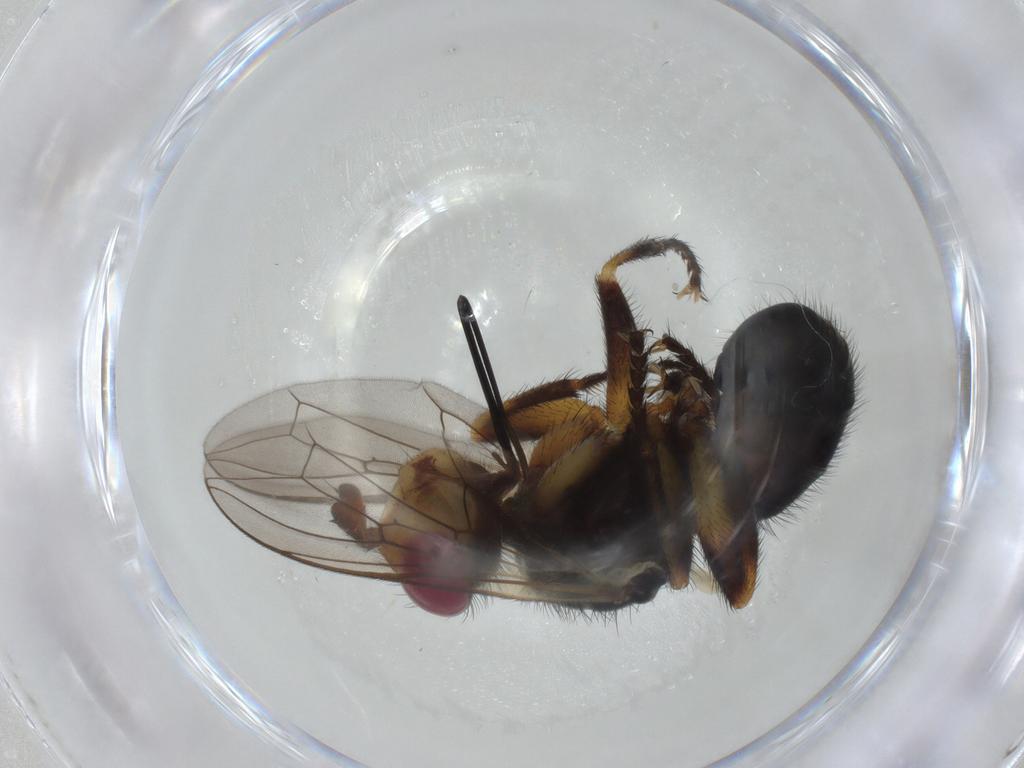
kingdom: Animalia
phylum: Arthropoda
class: Insecta
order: Diptera
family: Conopidae
